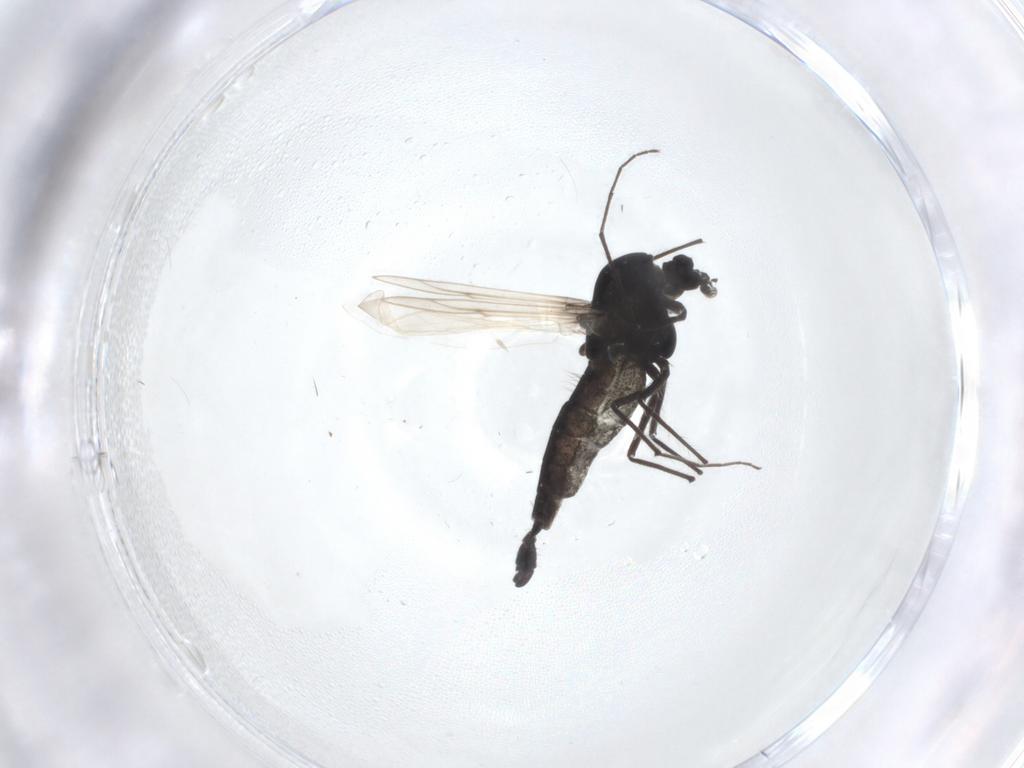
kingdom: Animalia
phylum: Arthropoda
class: Insecta
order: Diptera
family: Chironomidae
